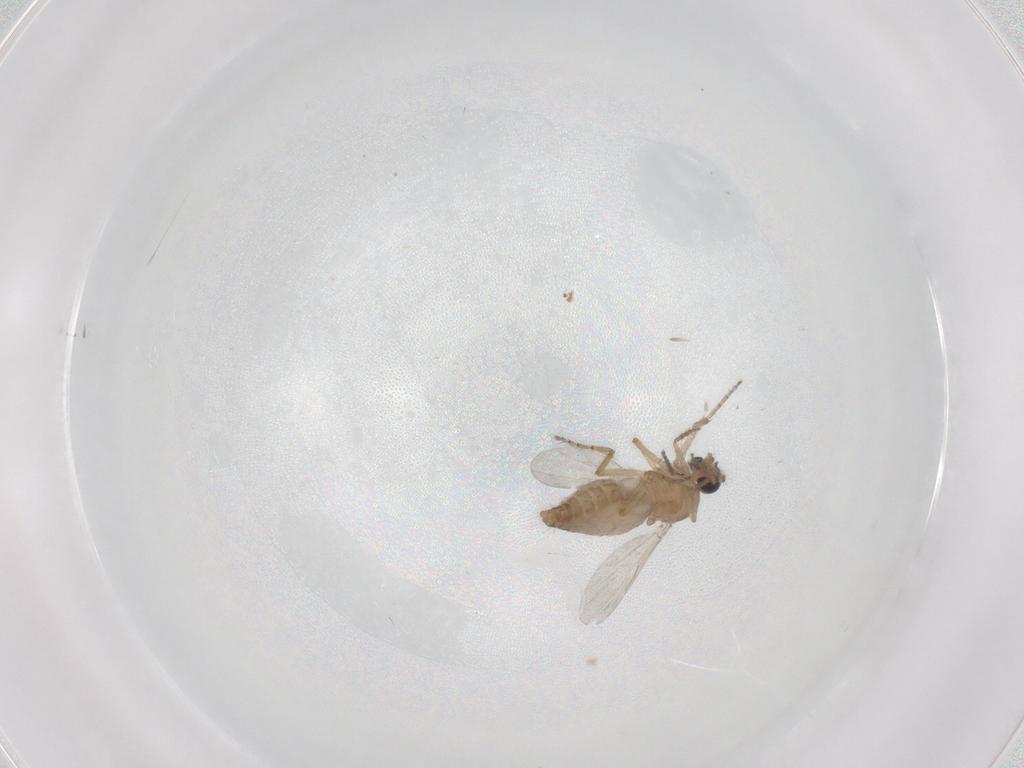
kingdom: Animalia
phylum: Arthropoda
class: Insecta
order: Diptera
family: Ceratopogonidae
